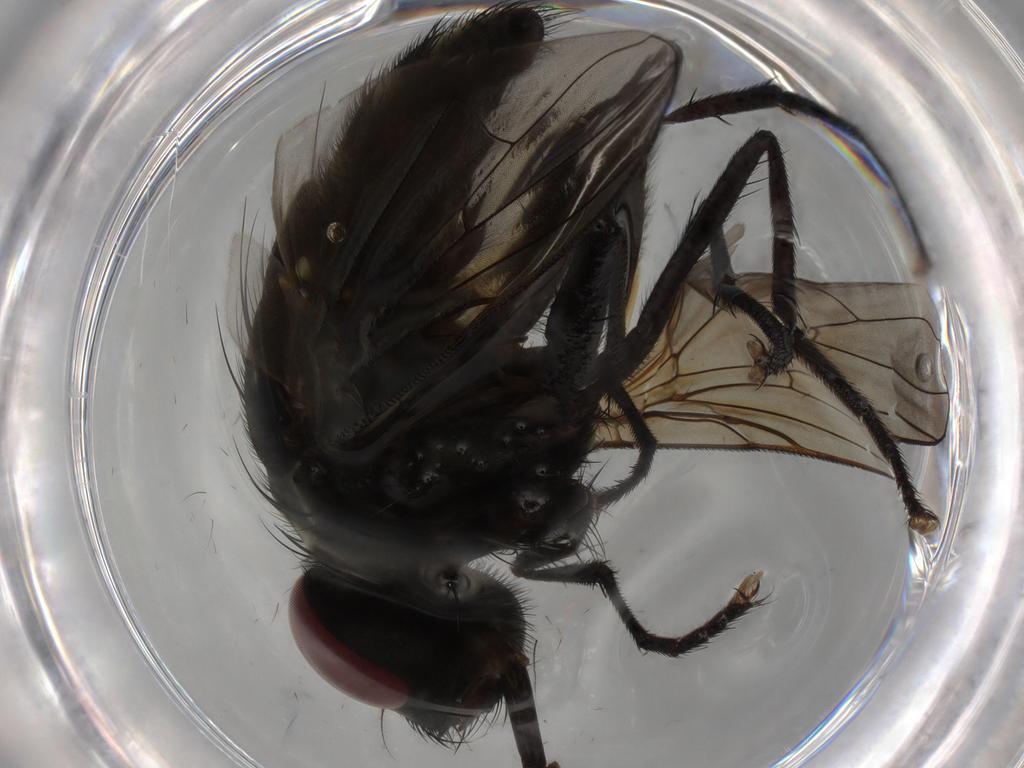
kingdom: Animalia
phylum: Arthropoda
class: Insecta
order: Diptera
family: Muscidae
